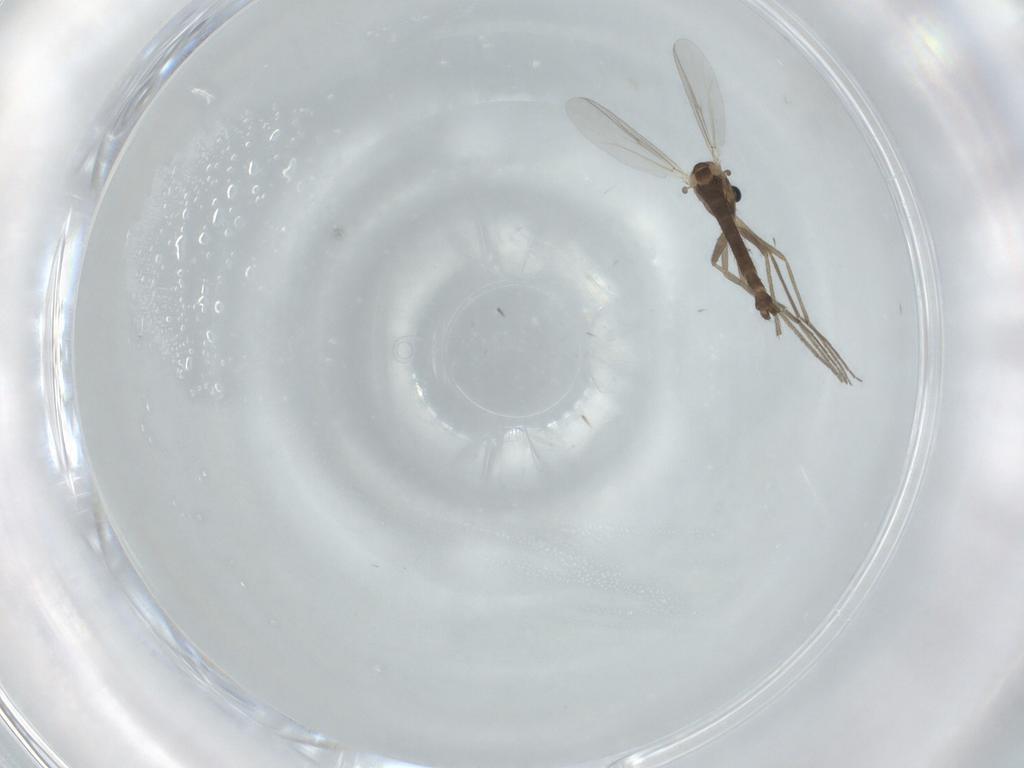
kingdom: Animalia
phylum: Arthropoda
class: Insecta
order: Diptera
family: Chironomidae
